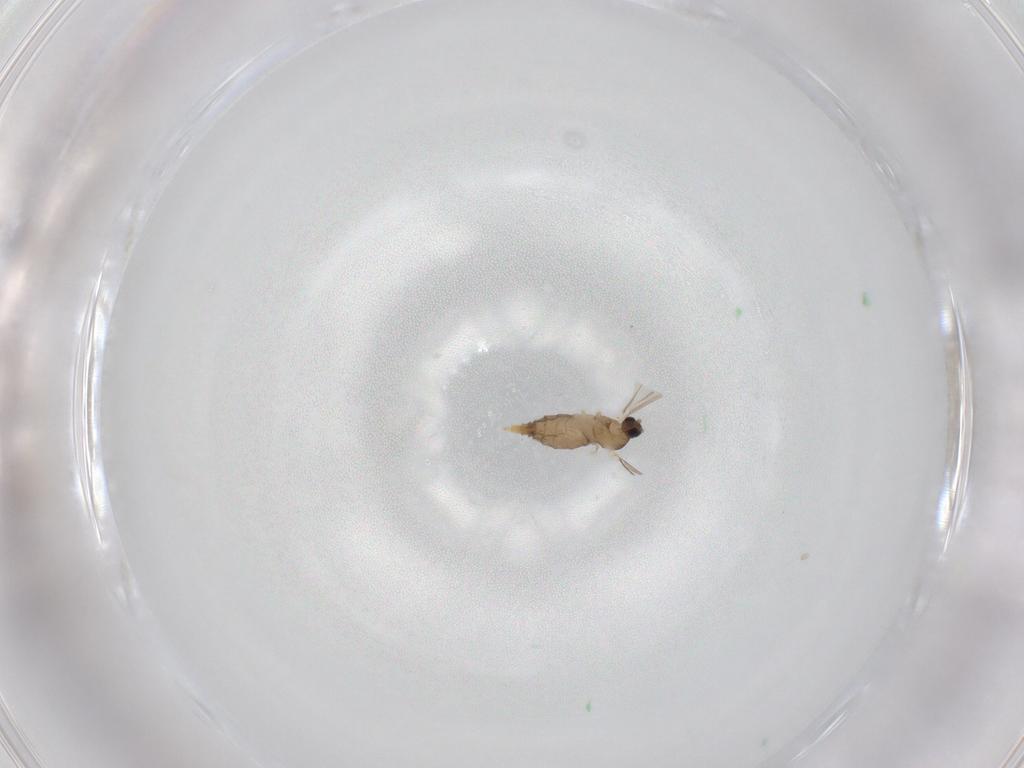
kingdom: Animalia
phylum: Arthropoda
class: Insecta
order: Diptera
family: Cecidomyiidae
